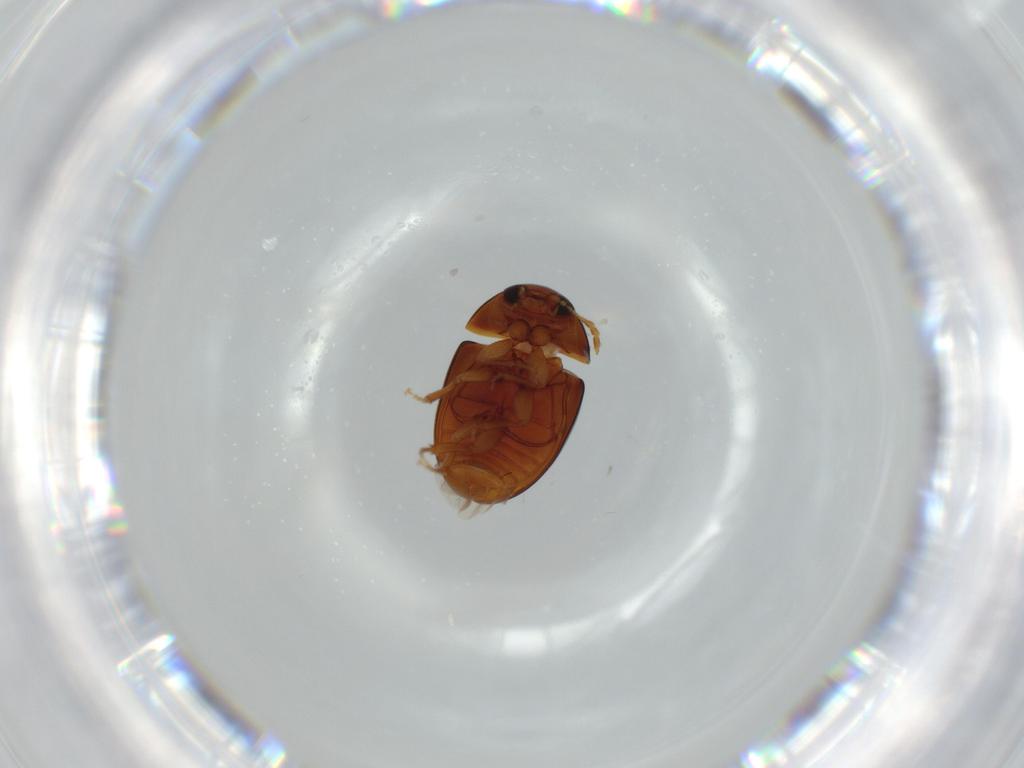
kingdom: Animalia
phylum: Arthropoda
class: Insecta
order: Coleoptera
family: Phalacridae
